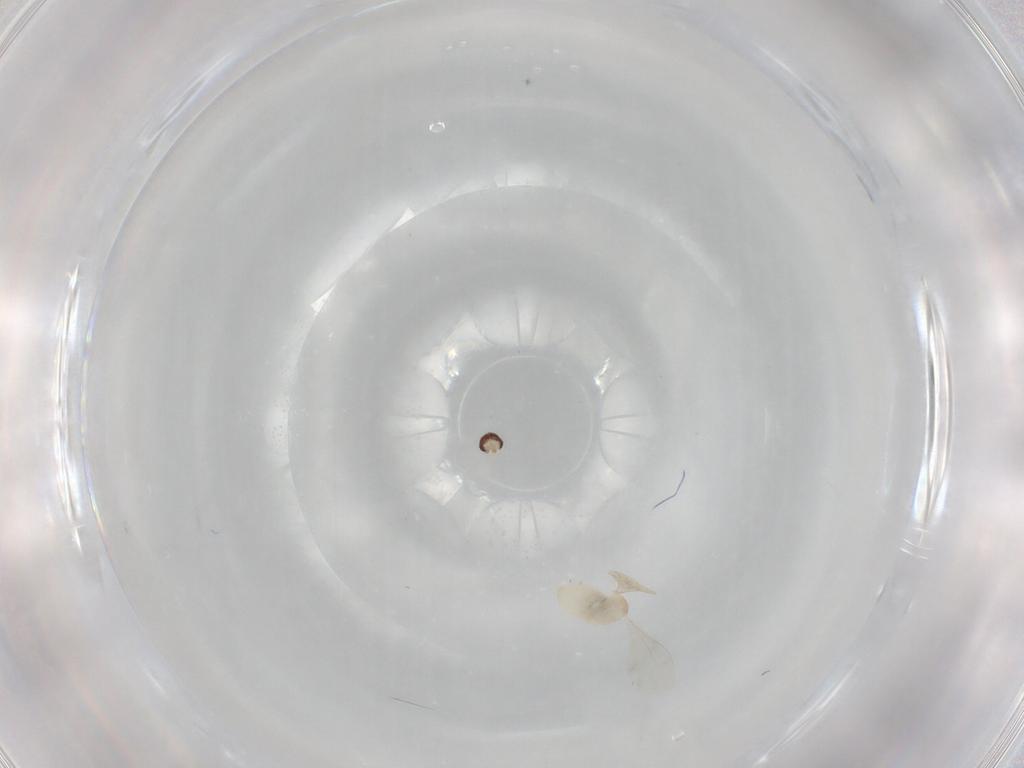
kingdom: Animalia
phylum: Arthropoda
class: Insecta
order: Diptera
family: Cecidomyiidae
